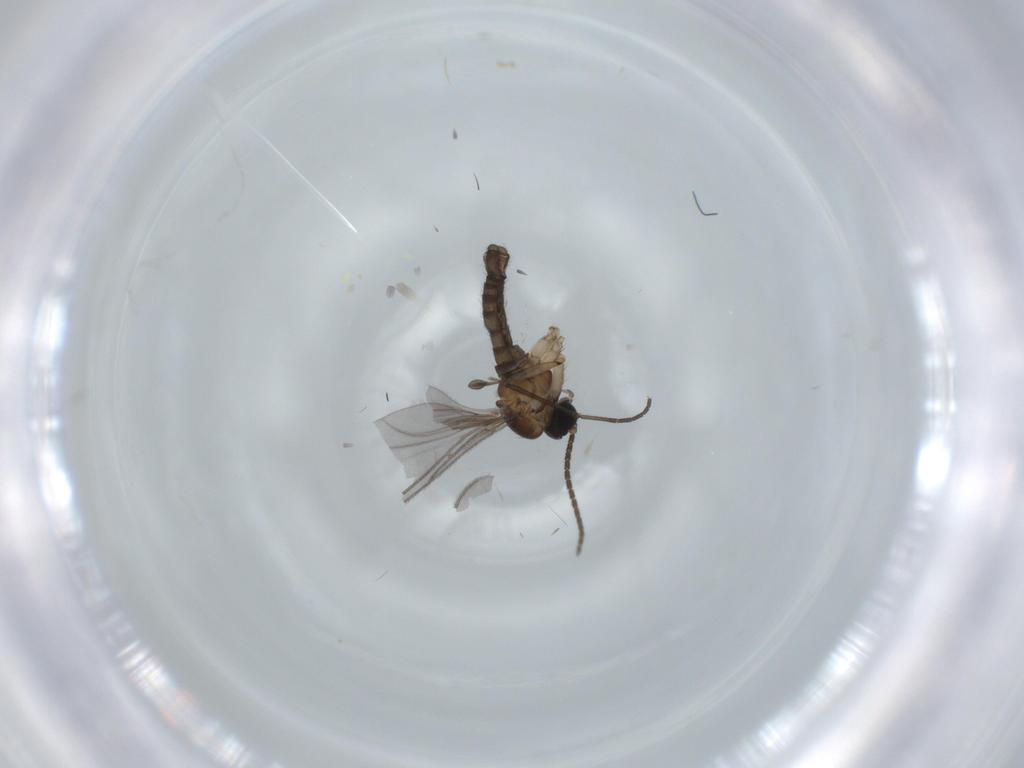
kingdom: Animalia
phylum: Arthropoda
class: Insecta
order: Diptera
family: Sciaridae
